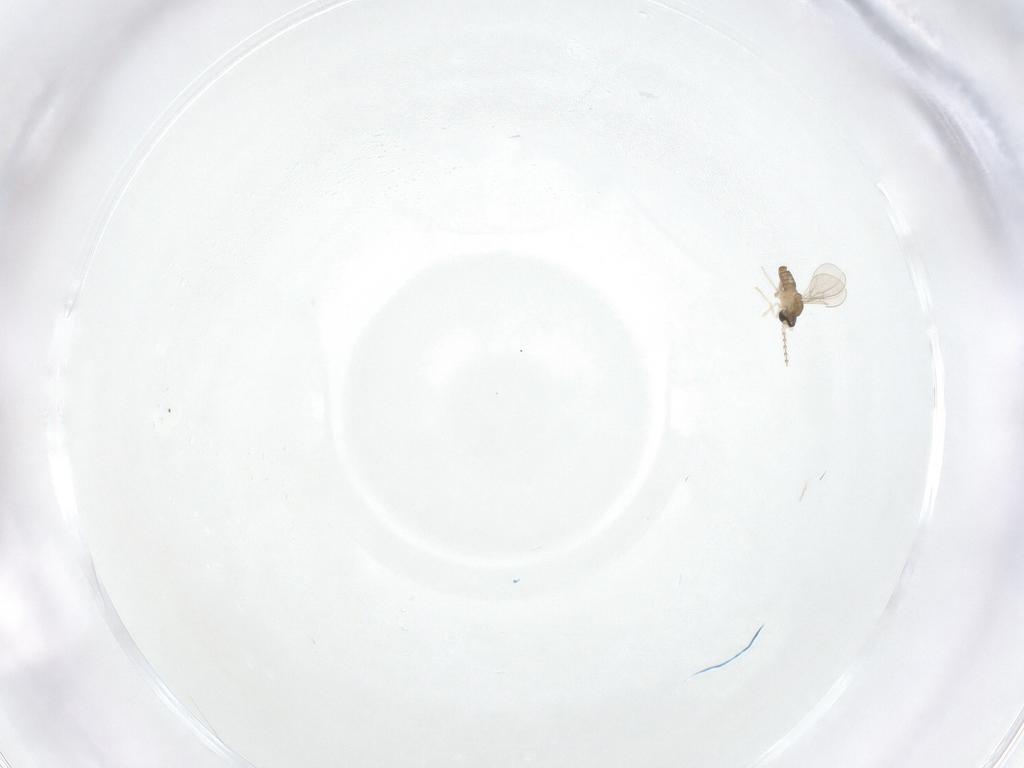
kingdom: Animalia
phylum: Arthropoda
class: Insecta
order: Diptera
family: Cecidomyiidae
